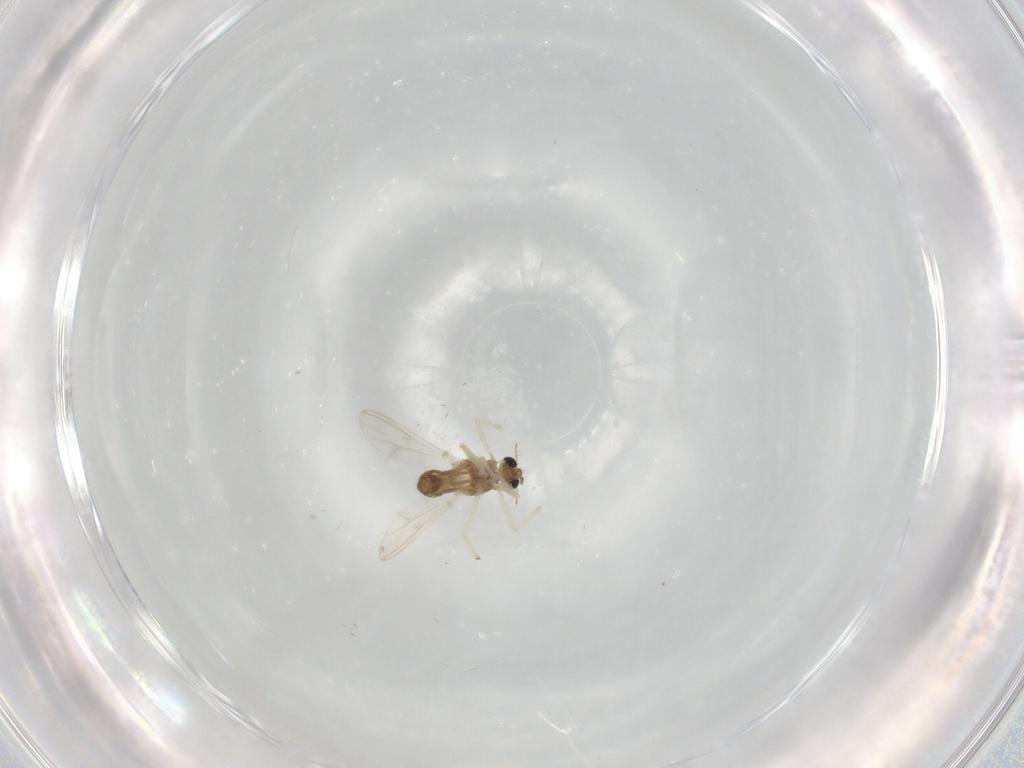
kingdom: Animalia
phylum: Arthropoda
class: Insecta
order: Diptera
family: Chironomidae
